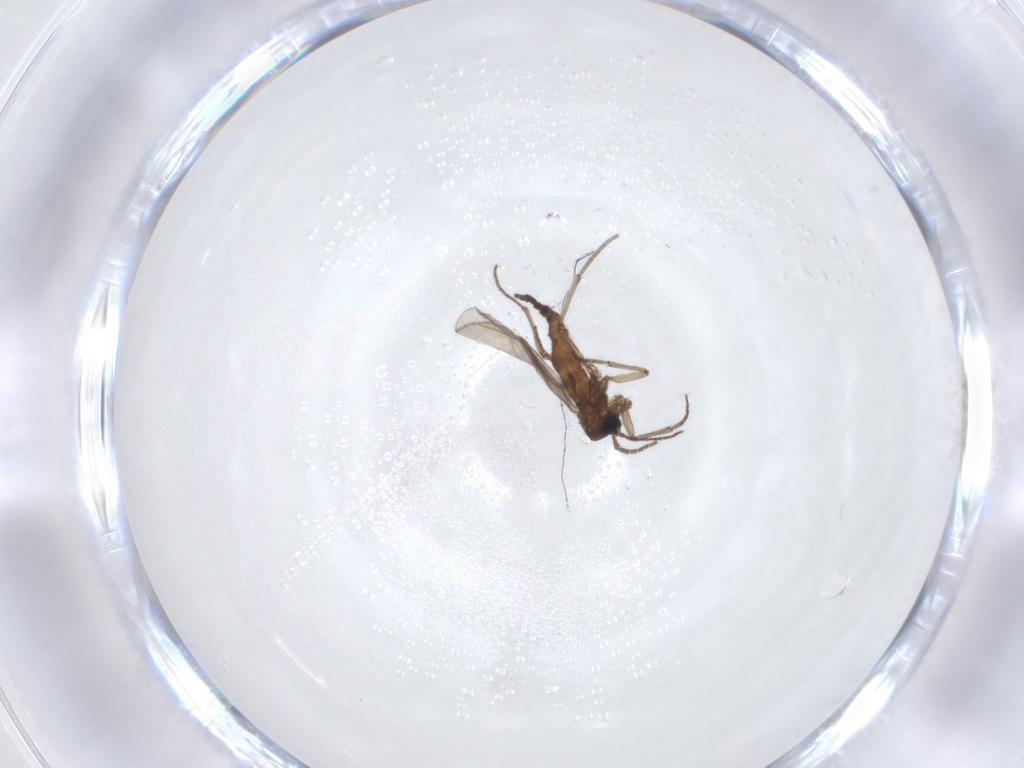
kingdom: Animalia
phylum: Arthropoda
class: Insecta
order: Diptera
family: Sciaridae
